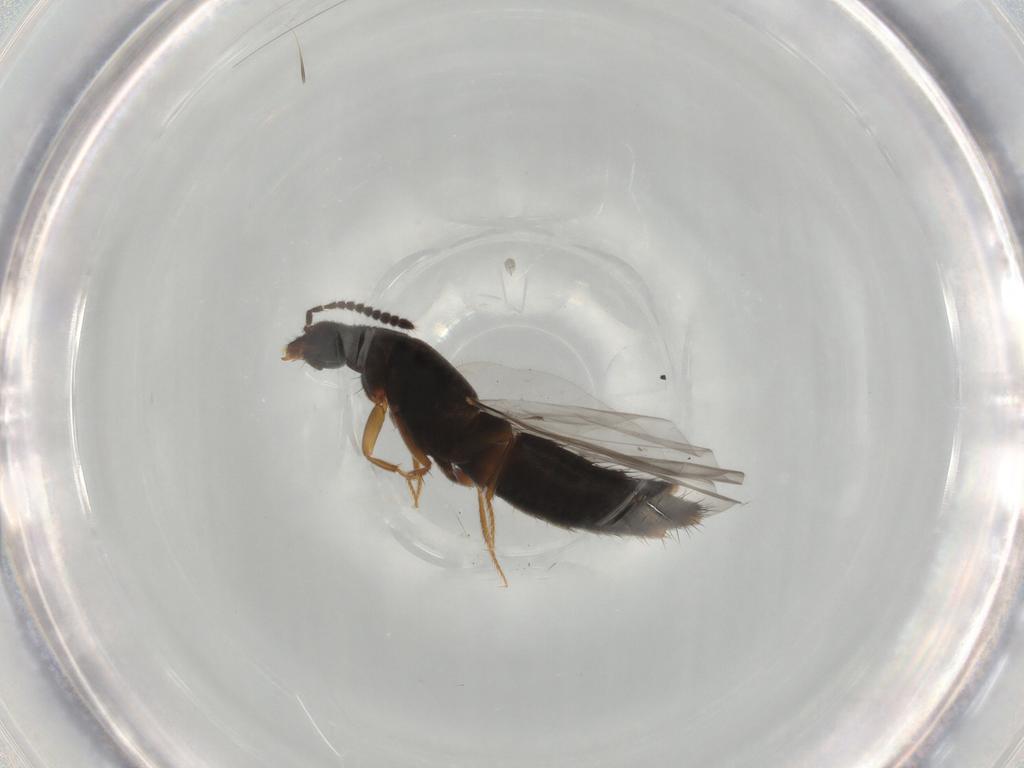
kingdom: Animalia
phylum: Arthropoda
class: Insecta
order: Coleoptera
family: Staphylinidae
